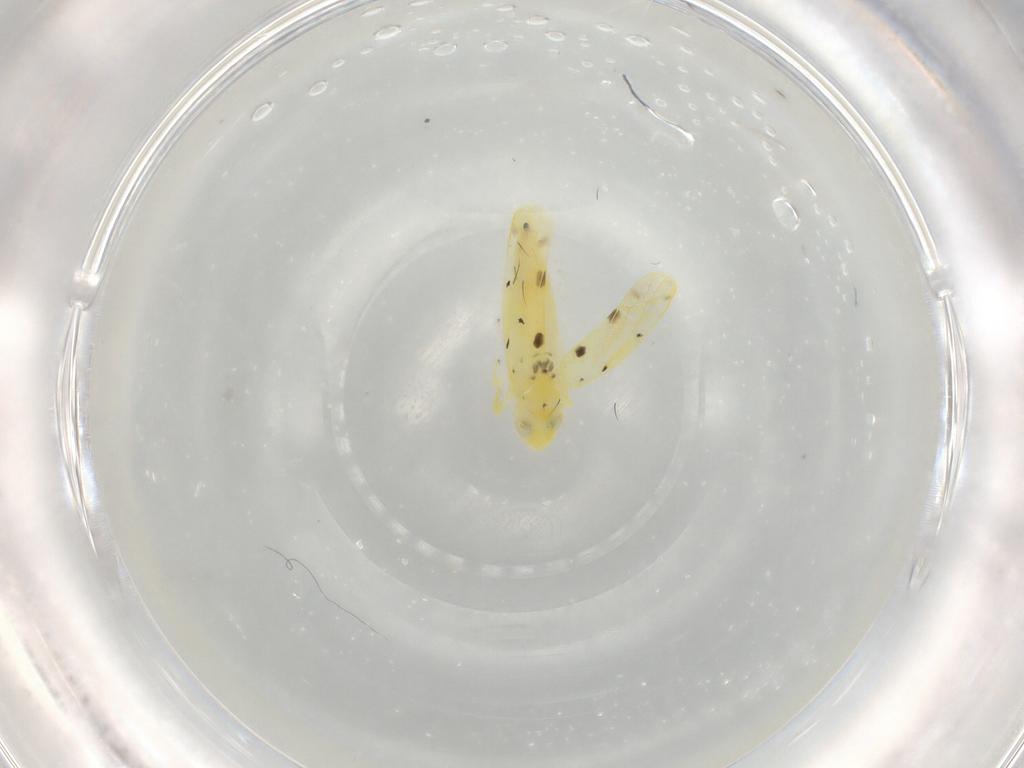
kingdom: Animalia
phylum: Arthropoda
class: Insecta
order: Hemiptera
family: Cicadellidae
